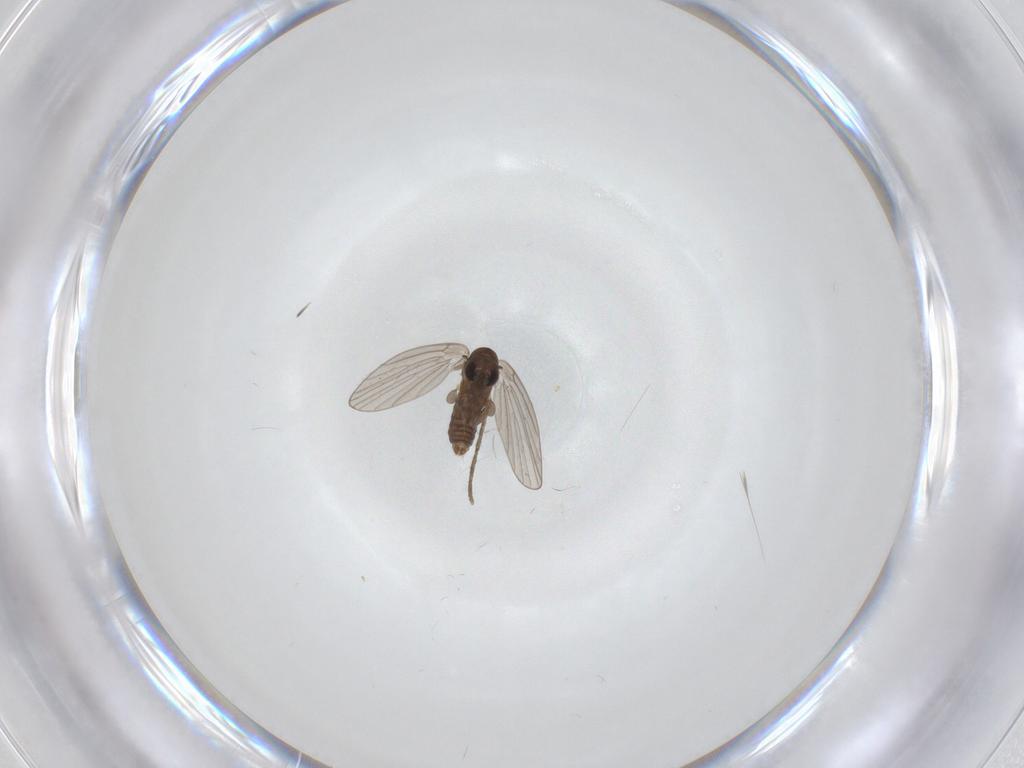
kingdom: Animalia
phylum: Arthropoda
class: Insecta
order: Diptera
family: Psychodidae
